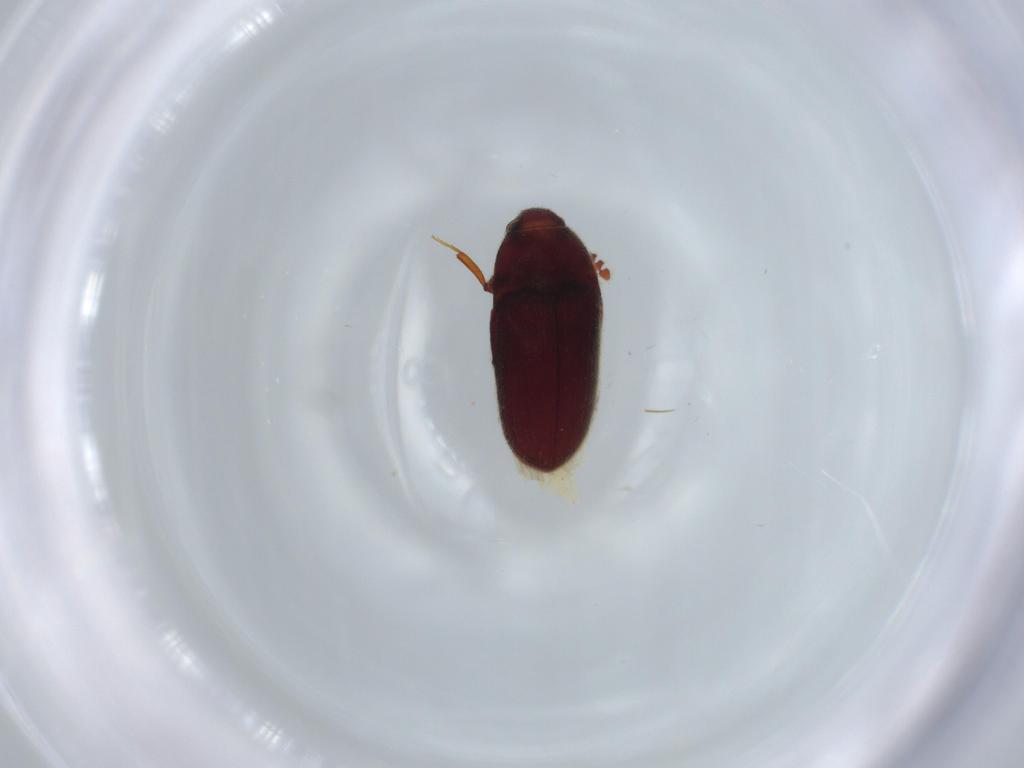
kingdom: Animalia
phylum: Arthropoda
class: Insecta
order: Coleoptera
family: Throscidae
